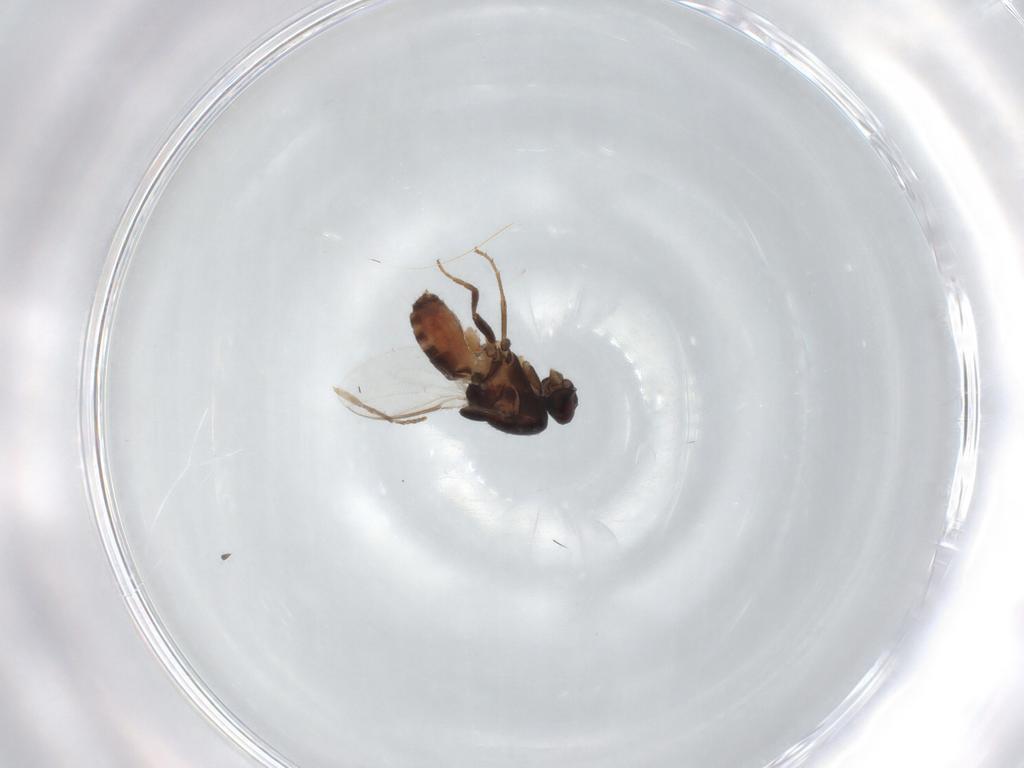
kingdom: Animalia
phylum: Arthropoda
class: Insecta
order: Diptera
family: Sphaeroceridae
